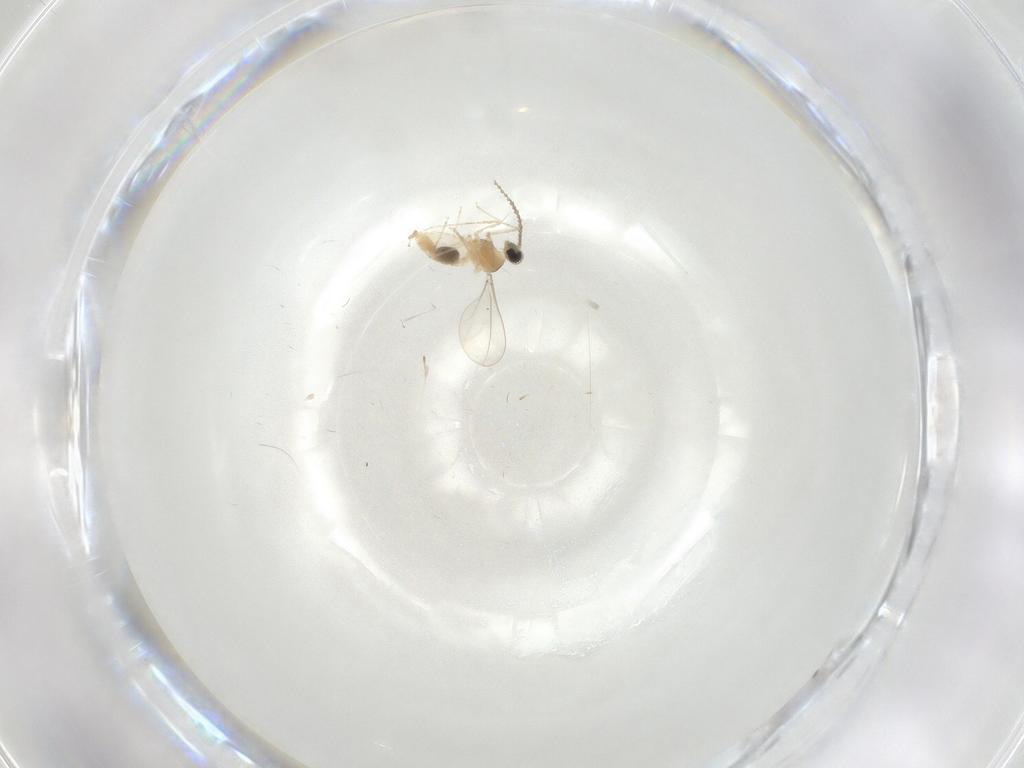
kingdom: Animalia
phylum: Arthropoda
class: Insecta
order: Diptera
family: Cecidomyiidae
